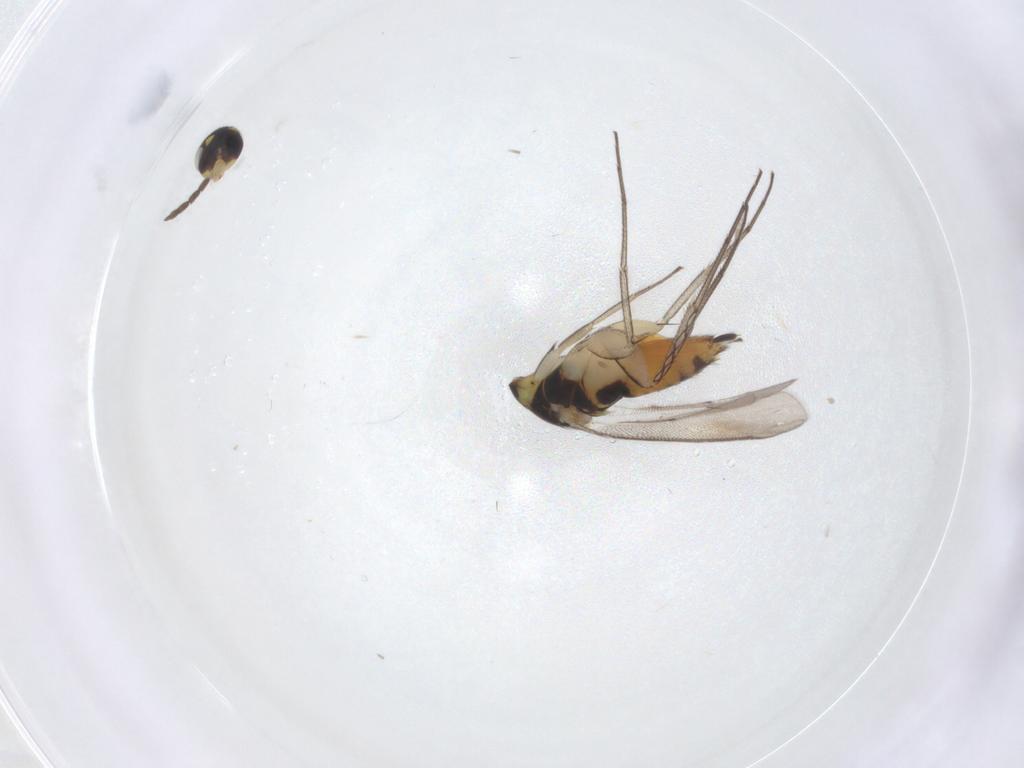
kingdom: Animalia
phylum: Arthropoda
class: Insecta
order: Hymenoptera
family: Eulophidae
